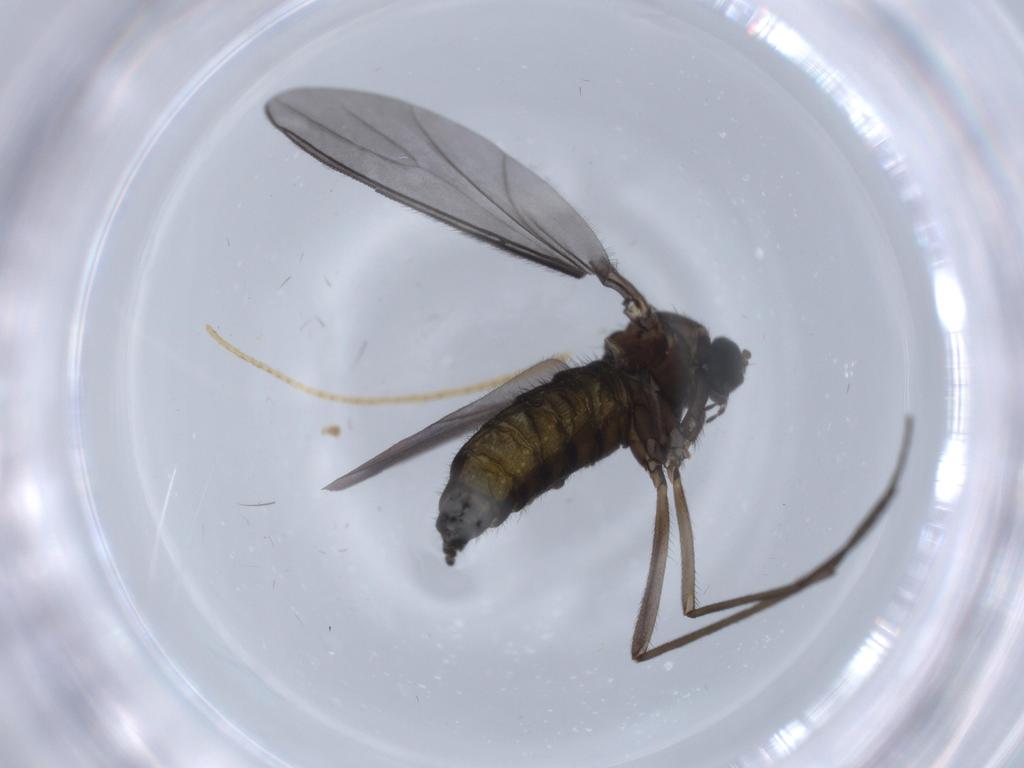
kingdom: Animalia
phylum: Arthropoda
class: Insecta
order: Diptera
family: Sciaridae
